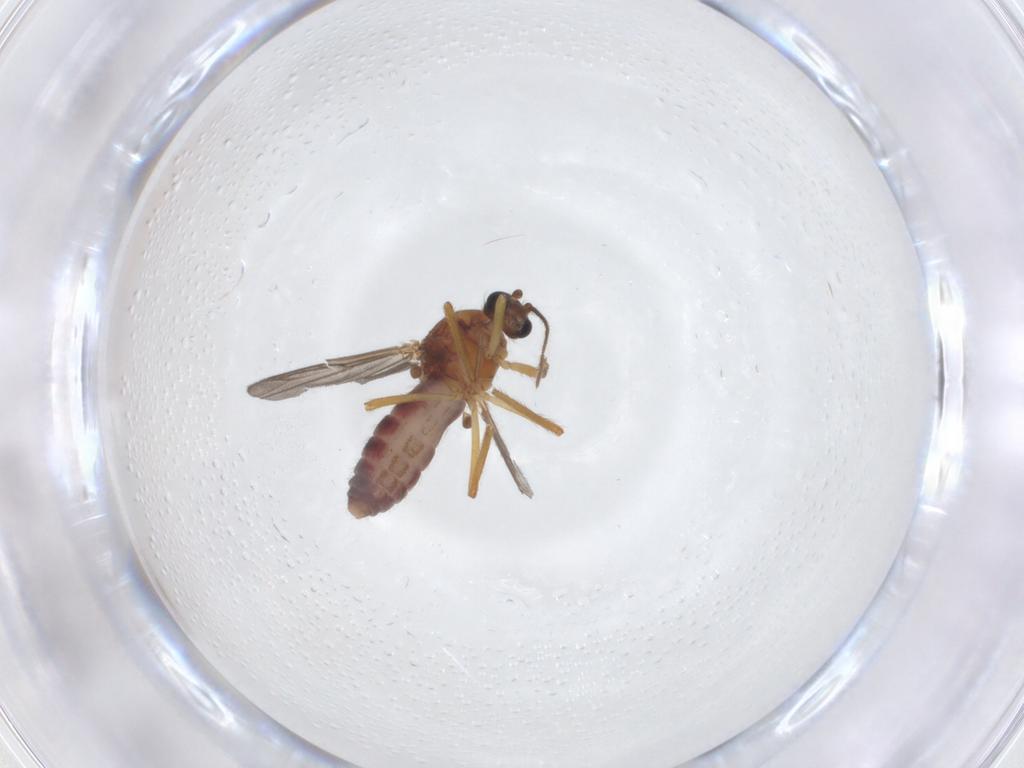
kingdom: Animalia
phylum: Arthropoda
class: Insecta
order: Diptera
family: Ceratopogonidae
